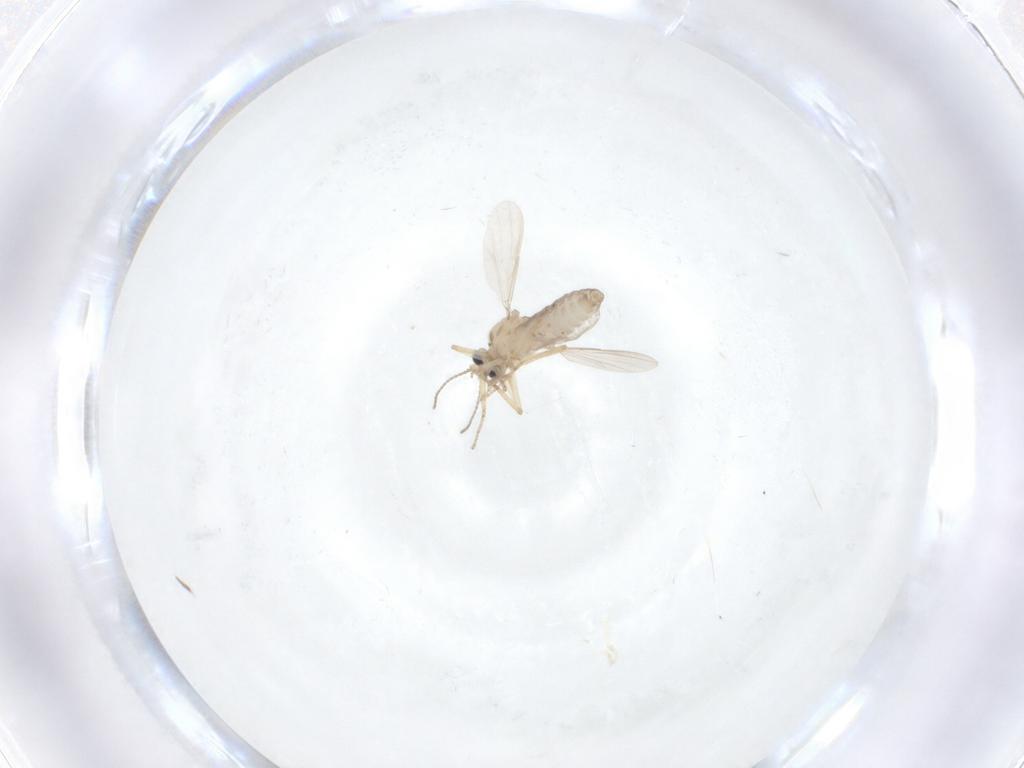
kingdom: Animalia
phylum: Arthropoda
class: Insecta
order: Diptera
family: Ceratopogonidae
